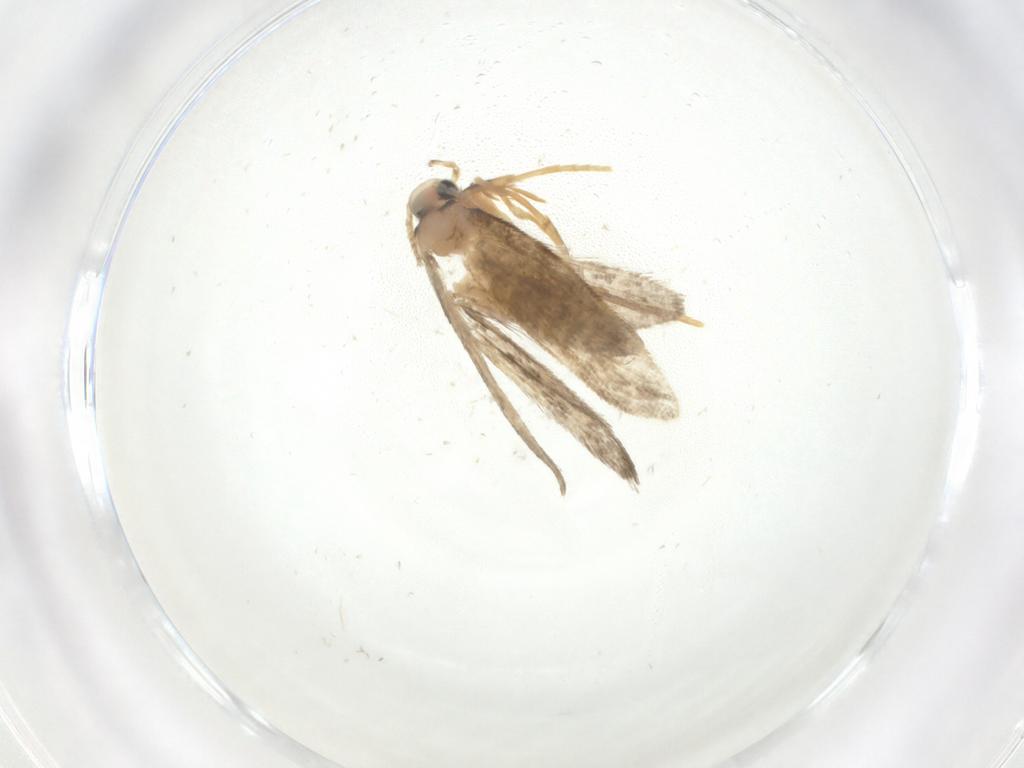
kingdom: Animalia
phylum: Arthropoda
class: Insecta
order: Lepidoptera
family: Psychidae
